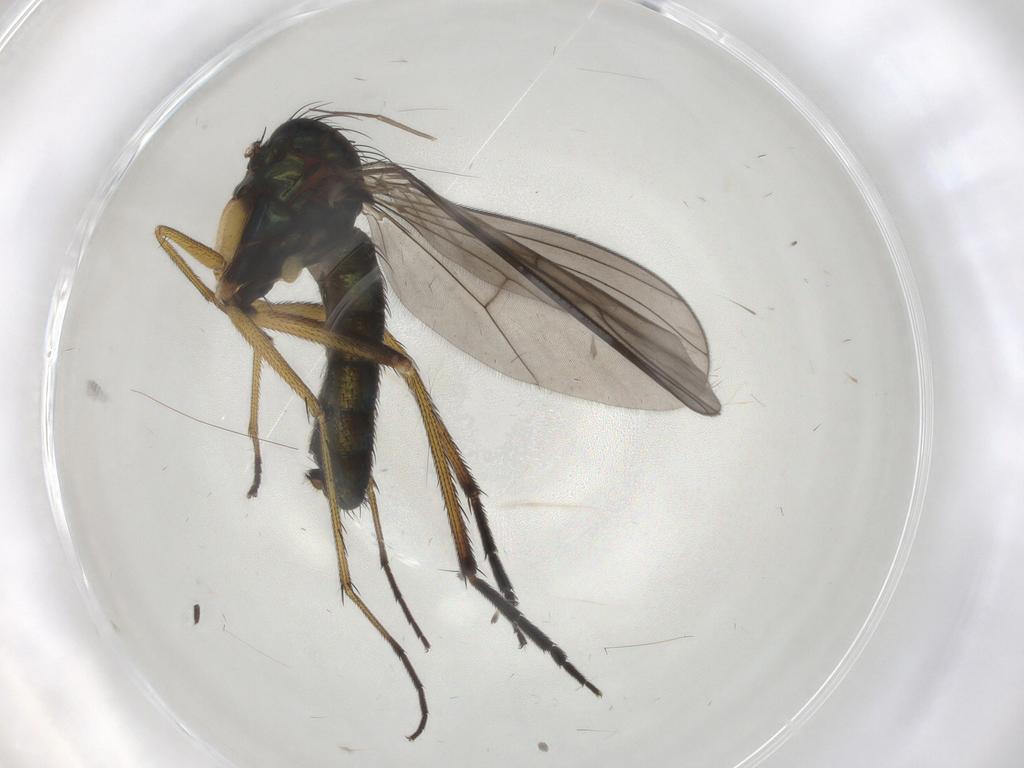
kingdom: Animalia
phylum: Arthropoda
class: Insecta
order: Diptera
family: Dolichopodidae
